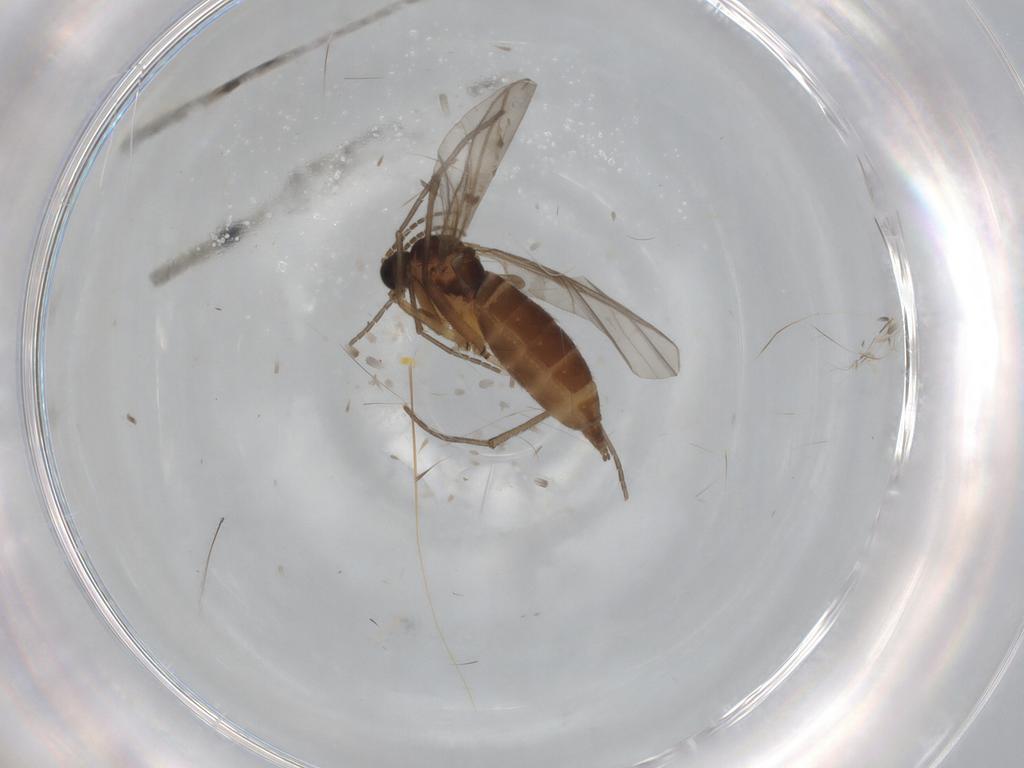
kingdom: Animalia
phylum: Arthropoda
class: Insecta
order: Diptera
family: Sciaridae
